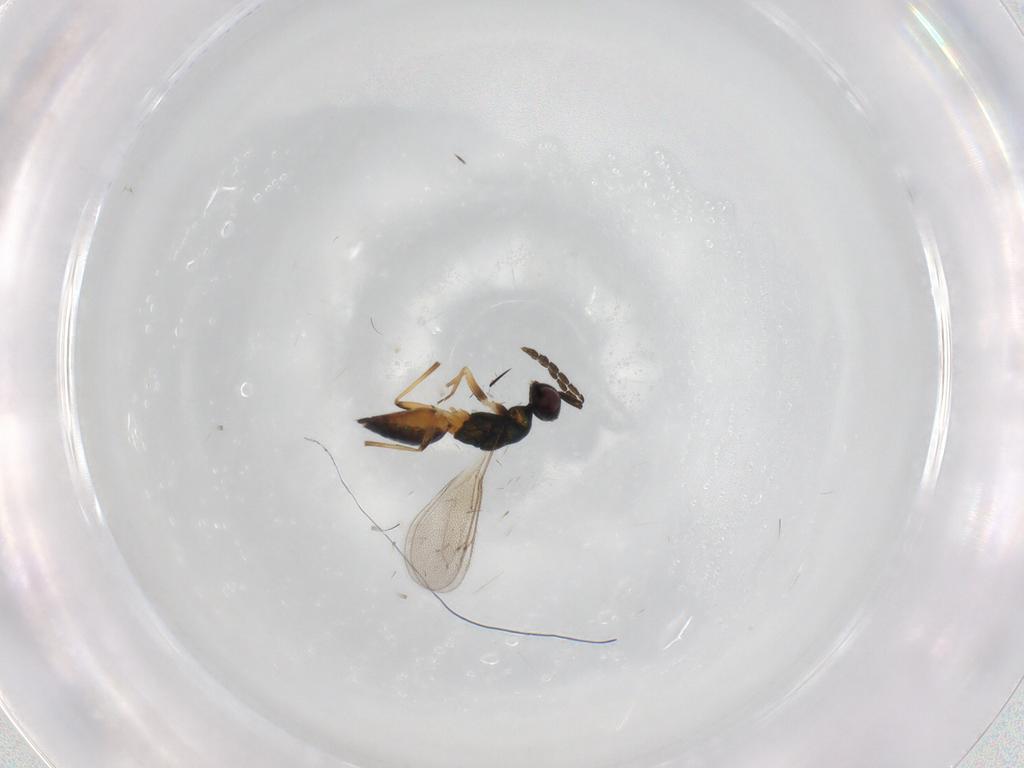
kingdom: Animalia
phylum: Arthropoda
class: Insecta
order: Hymenoptera
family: Eulophidae
